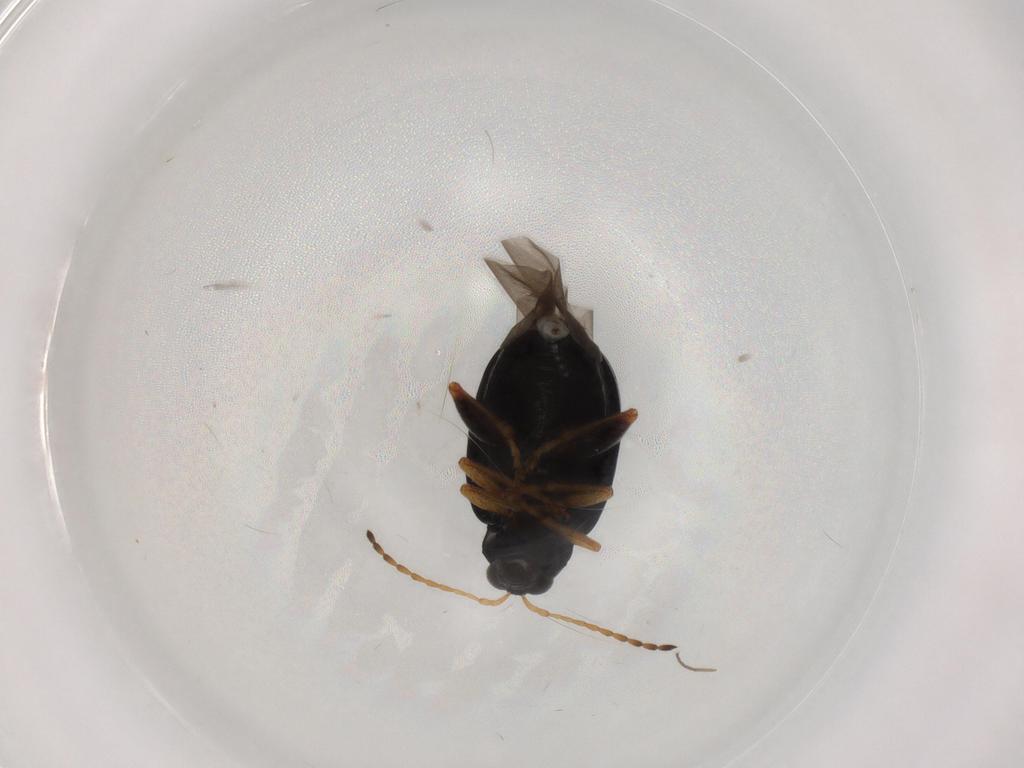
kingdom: Animalia
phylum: Arthropoda
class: Insecta
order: Coleoptera
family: Chrysomelidae
